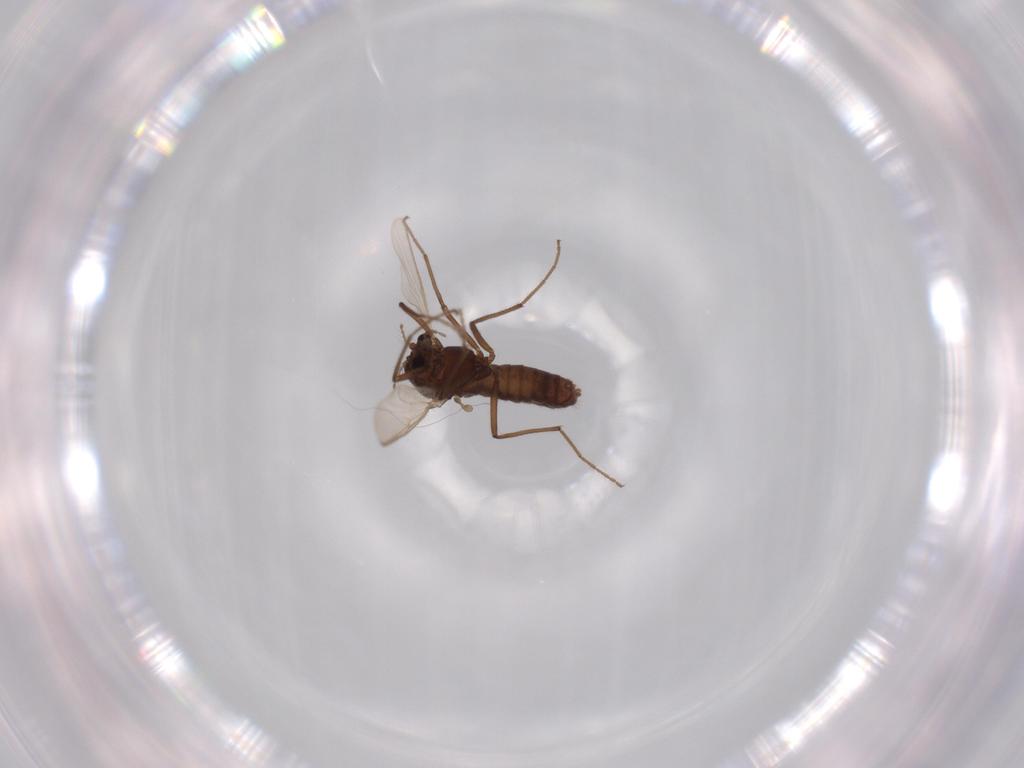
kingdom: Animalia
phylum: Arthropoda
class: Insecta
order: Diptera
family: Chironomidae
